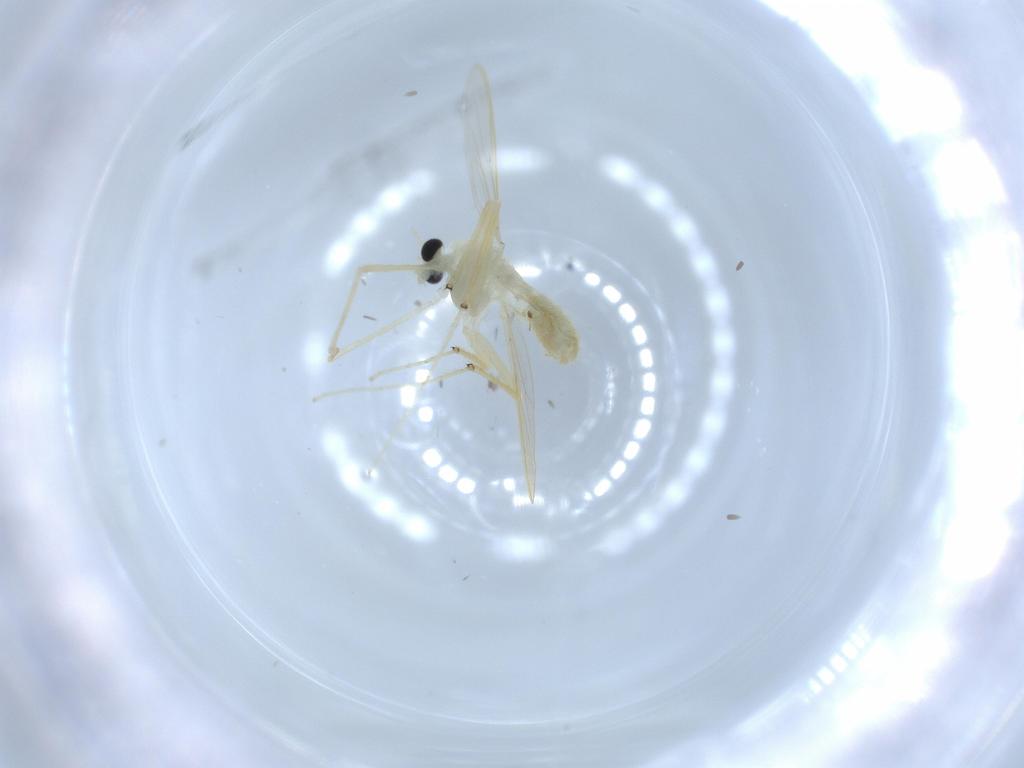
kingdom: Animalia
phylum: Arthropoda
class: Insecta
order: Diptera
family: Chironomidae
